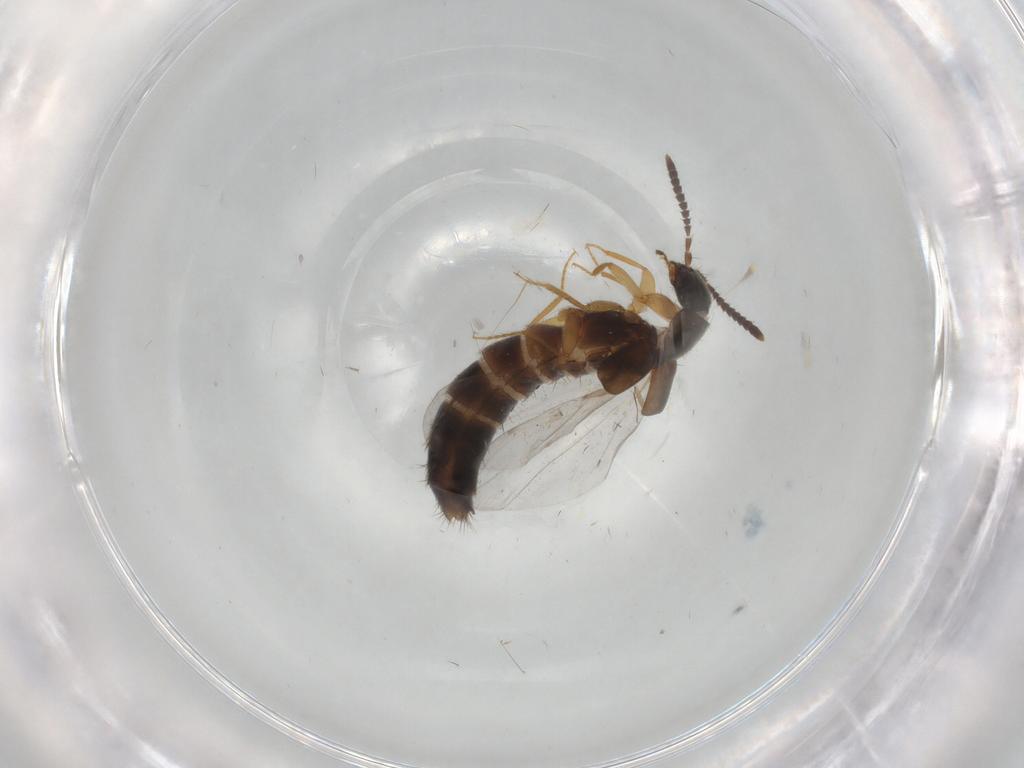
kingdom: Animalia
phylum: Arthropoda
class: Insecta
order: Coleoptera
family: Staphylinidae
